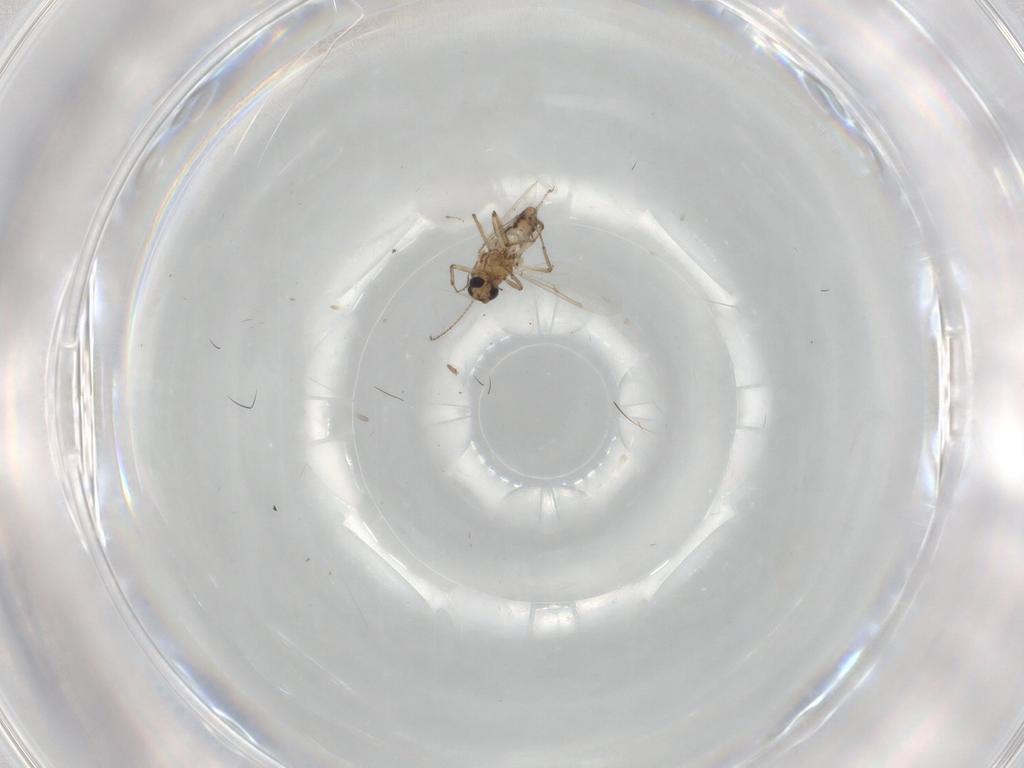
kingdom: Animalia
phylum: Arthropoda
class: Insecta
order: Diptera
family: Ceratopogonidae
